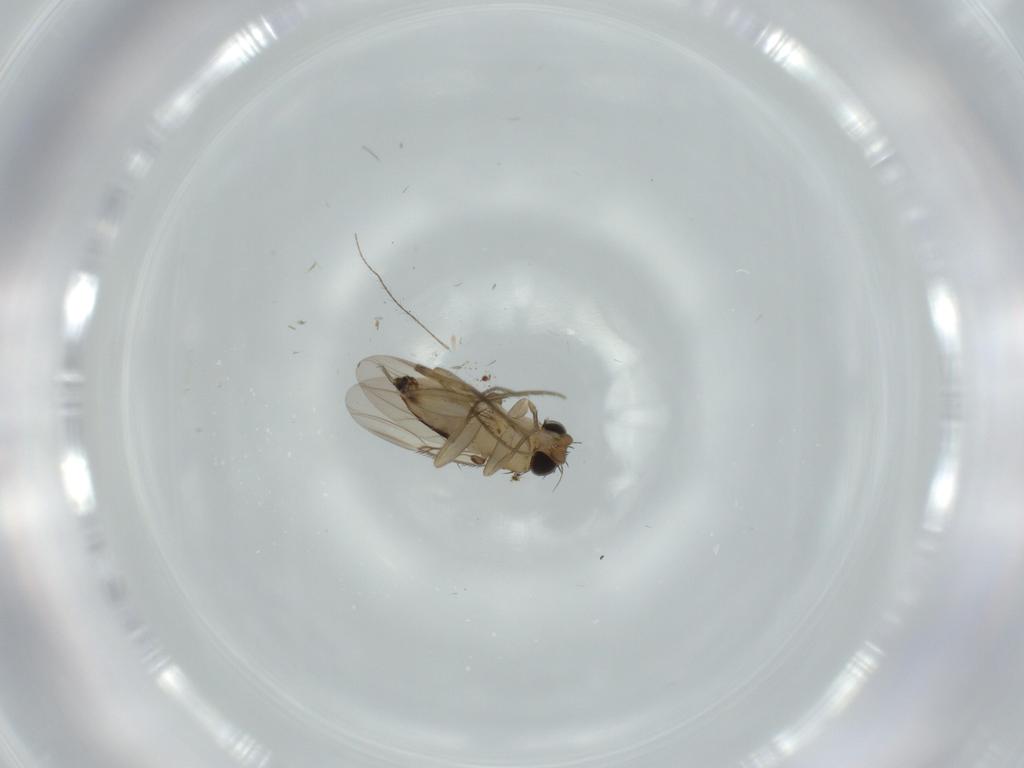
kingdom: Animalia
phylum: Arthropoda
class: Insecta
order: Diptera
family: Phoridae
